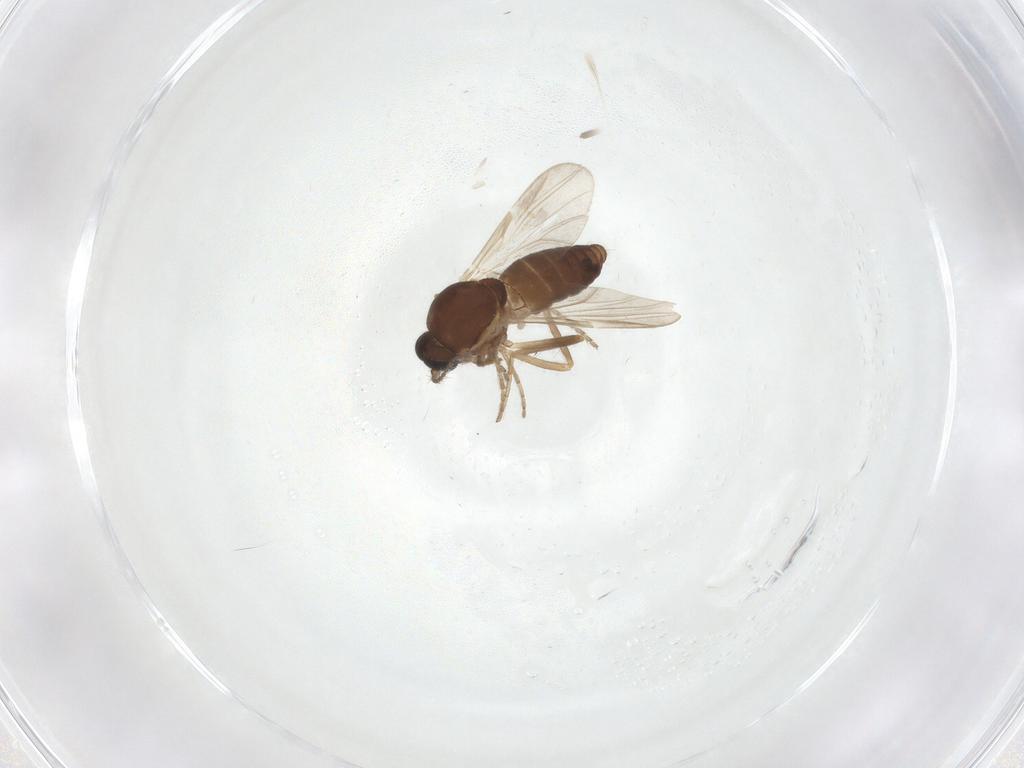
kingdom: Animalia
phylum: Arthropoda
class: Insecta
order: Diptera
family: Ceratopogonidae
